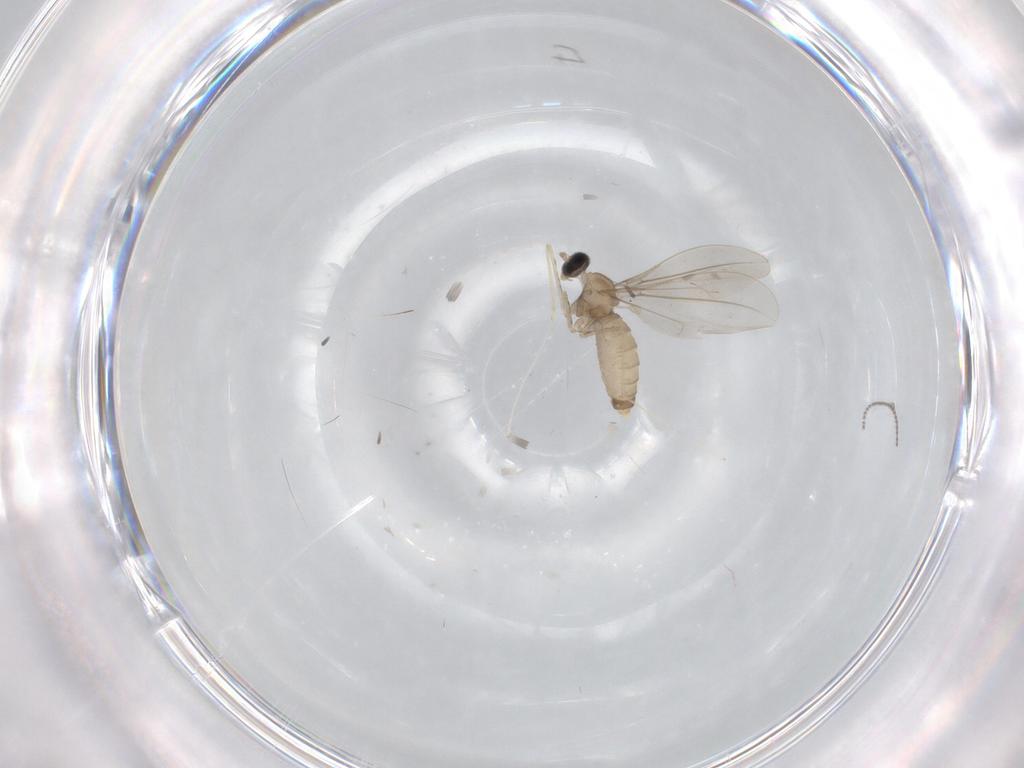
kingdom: Animalia
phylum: Arthropoda
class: Insecta
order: Diptera
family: Cecidomyiidae
